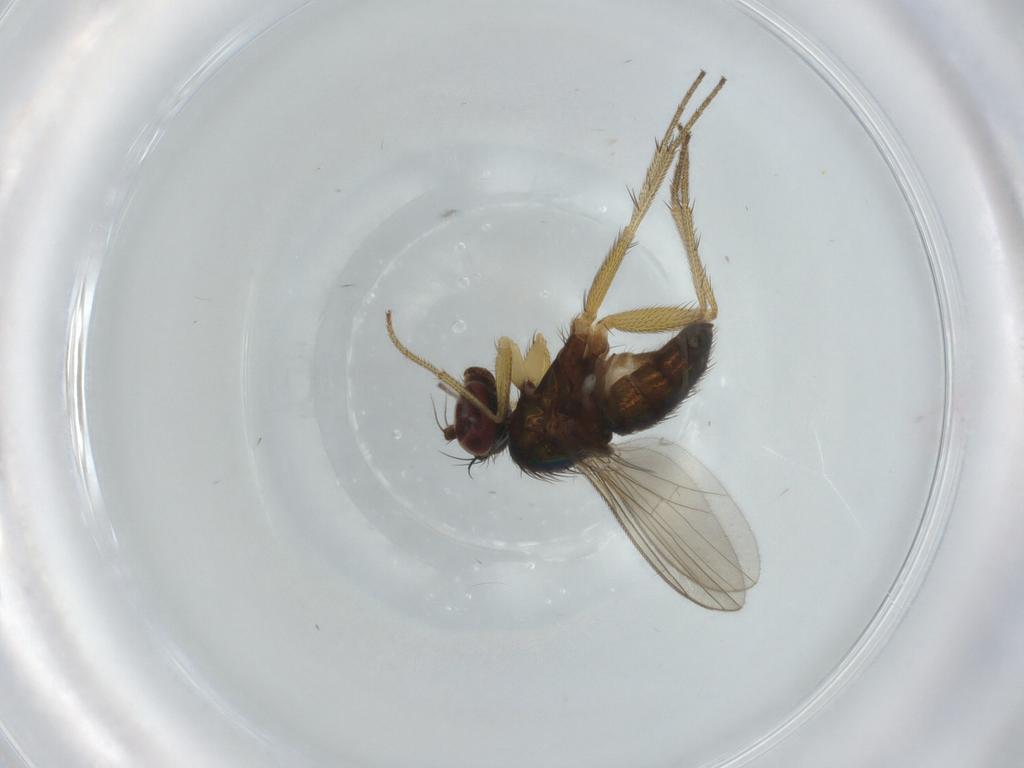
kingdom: Animalia
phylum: Arthropoda
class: Insecta
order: Diptera
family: Dolichopodidae
